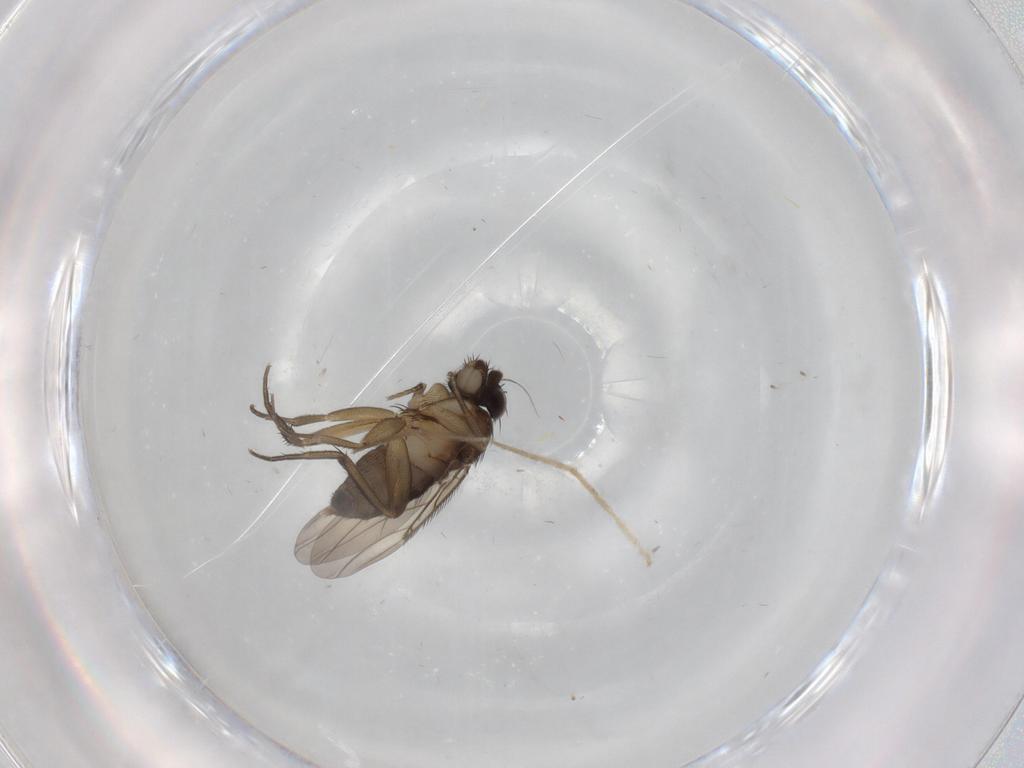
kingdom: Animalia
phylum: Arthropoda
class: Insecta
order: Diptera
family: Phoridae
